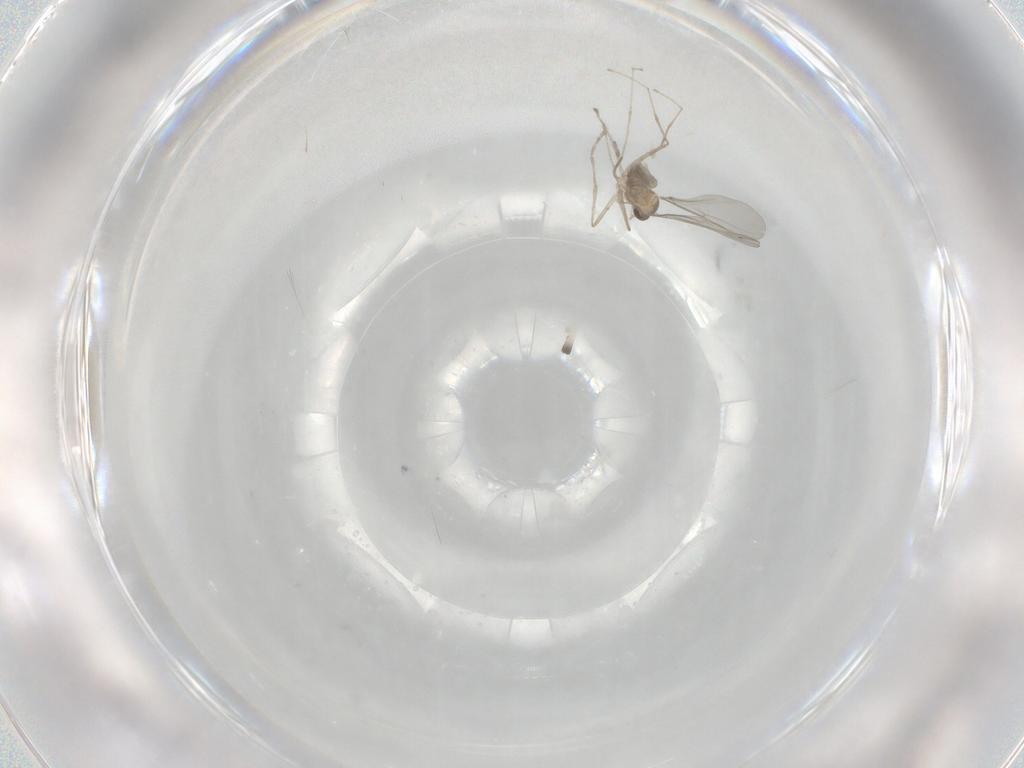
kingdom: Animalia
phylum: Arthropoda
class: Insecta
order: Diptera
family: Cecidomyiidae
